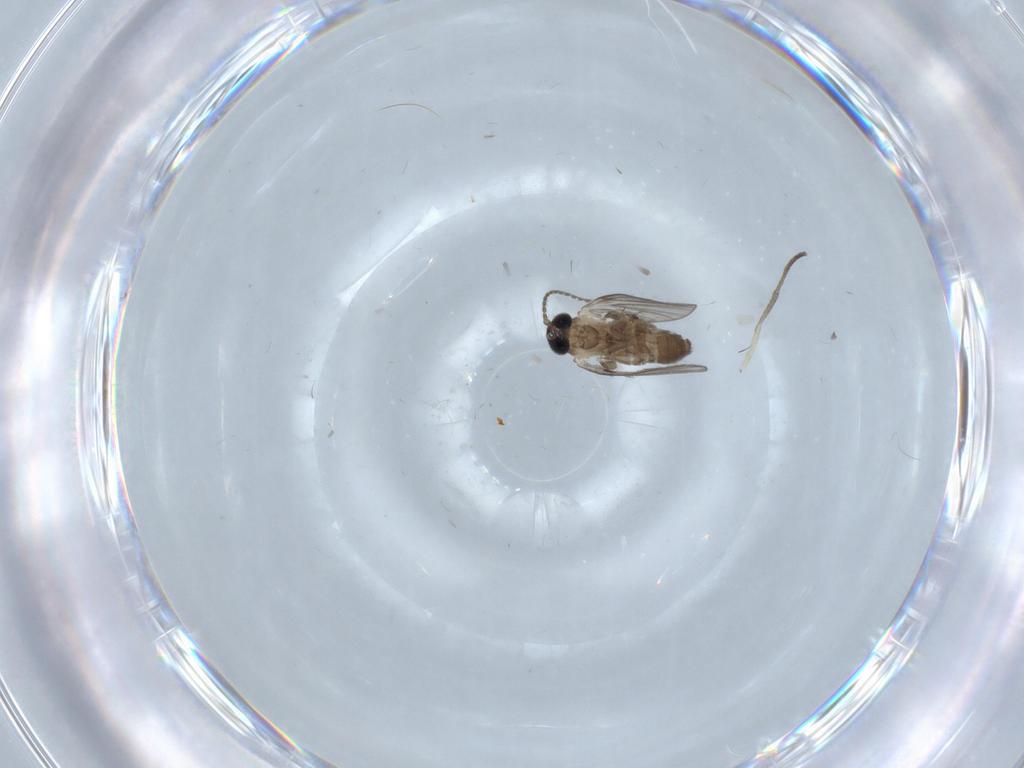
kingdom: Animalia
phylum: Arthropoda
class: Insecta
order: Diptera
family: Psychodidae
